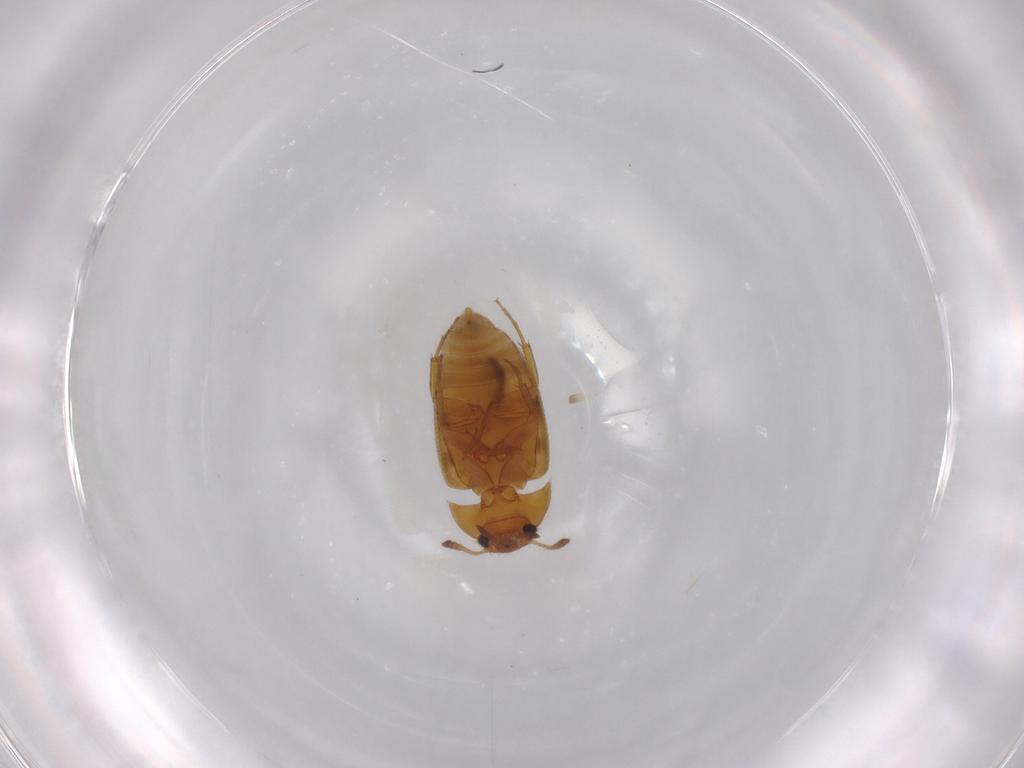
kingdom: Animalia
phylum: Arthropoda
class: Insecta
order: Coleoptera
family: Mycetophagidae
